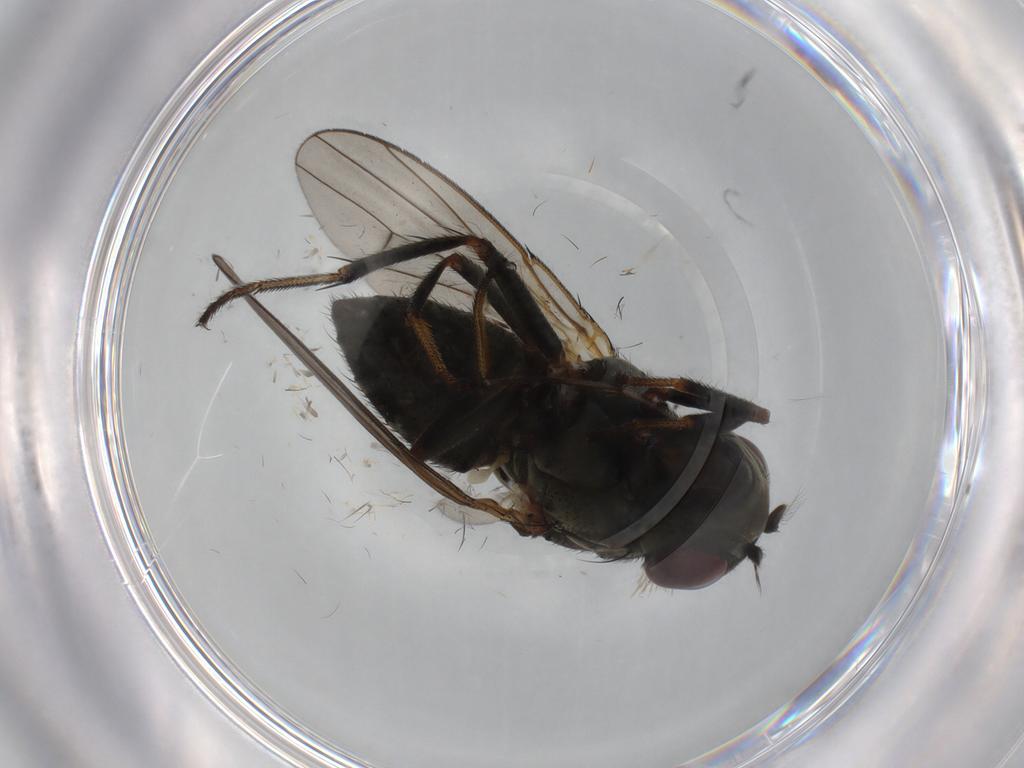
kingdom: Animalia
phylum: Arthropoda
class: Insecta
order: Diptera
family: Ephydridae
